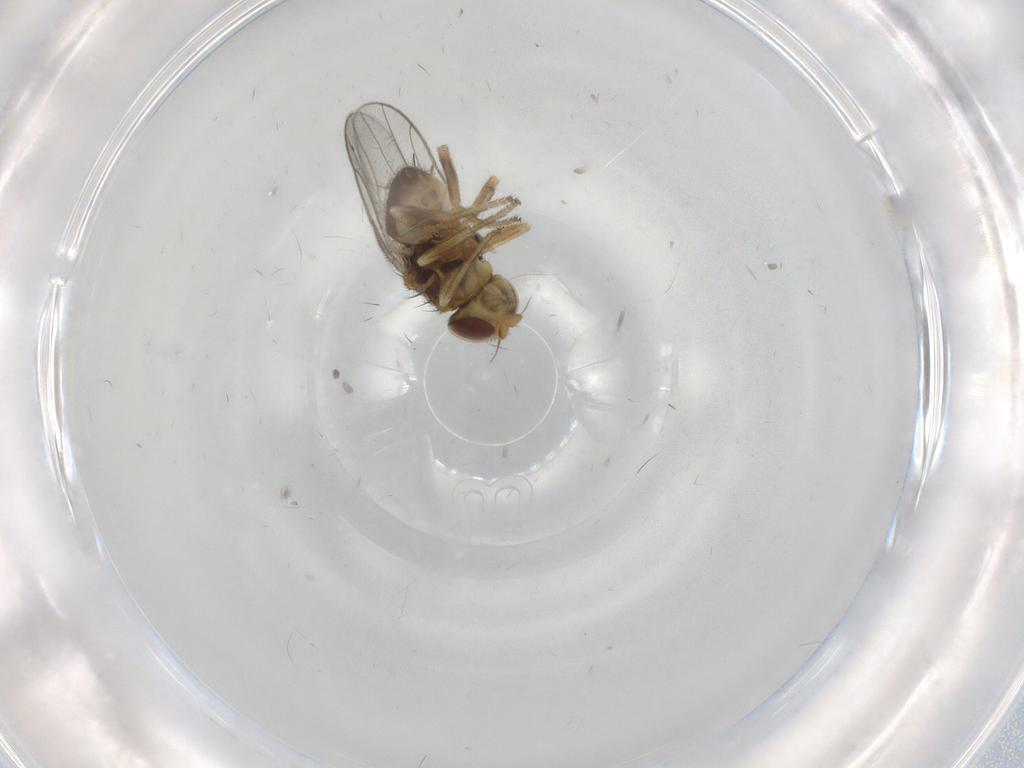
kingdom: Animalia
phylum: Arthropoda
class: Insecta
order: Diptera
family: Chloropidae
